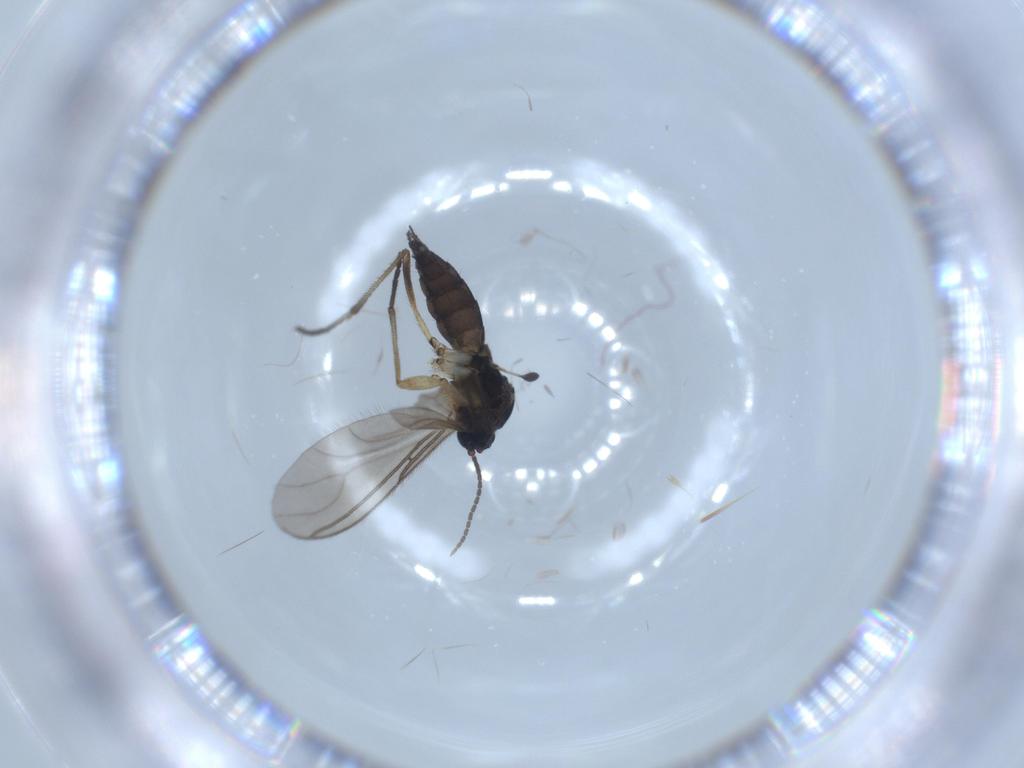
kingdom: Animalia
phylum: Arthropoda
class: Insecta
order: Diptera
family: Sciaridae
